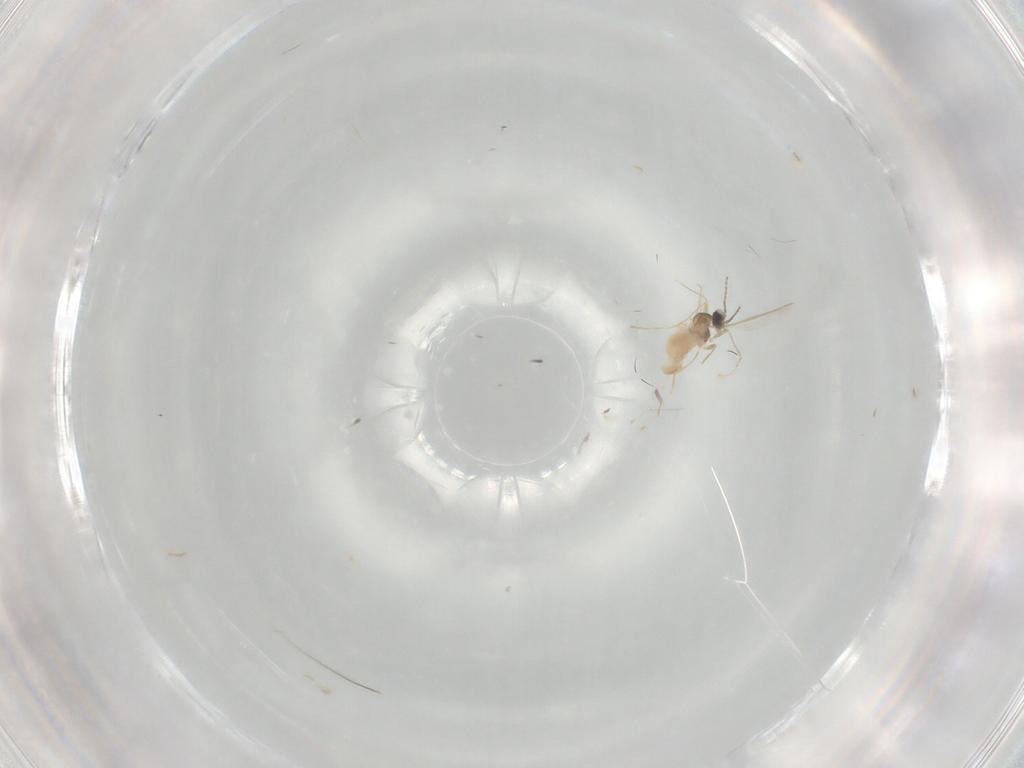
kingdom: Animalia
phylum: Arthropoda
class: Insecta
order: Diptera
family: Cecidomyiidae
